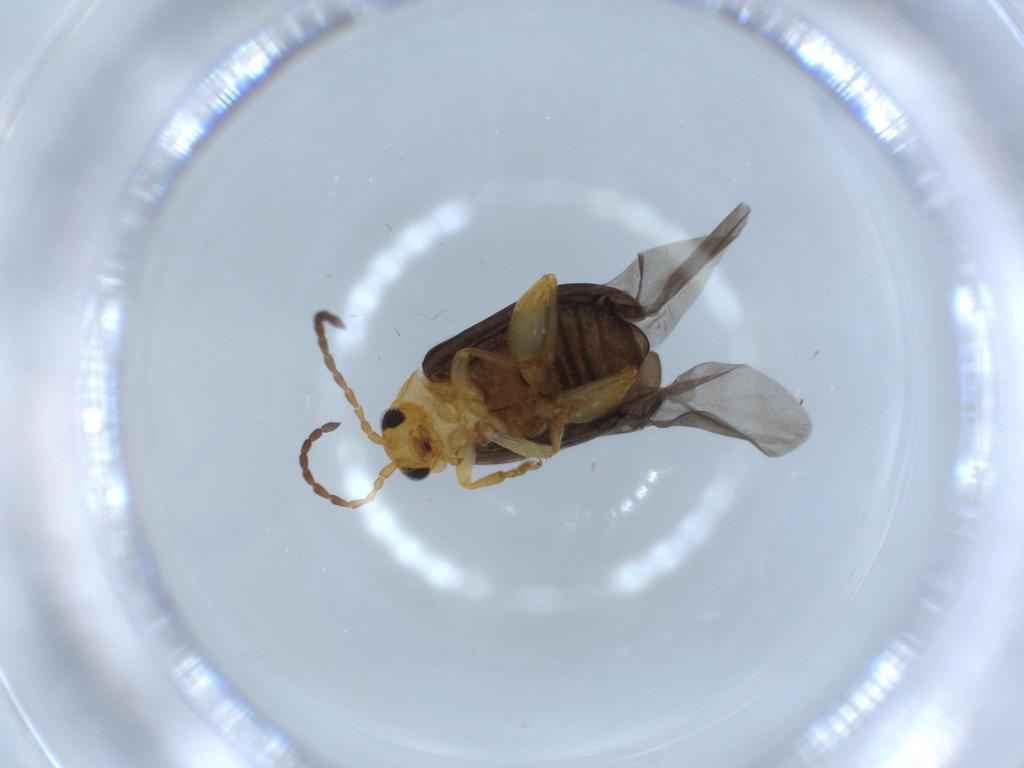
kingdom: Animalia
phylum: Arthropoda
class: Insecta
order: Coleoptera
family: Chrysomelidae
